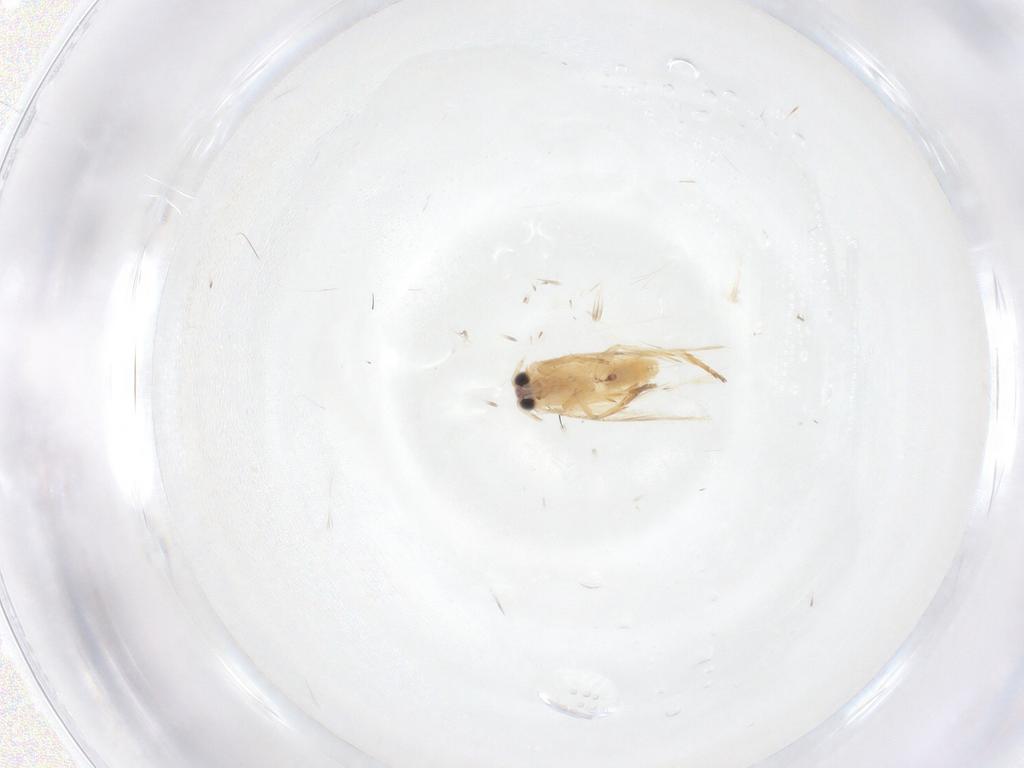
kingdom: Animalia
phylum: Arthropoda
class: Insecta
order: Lepidoptera
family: Nepticulidae
